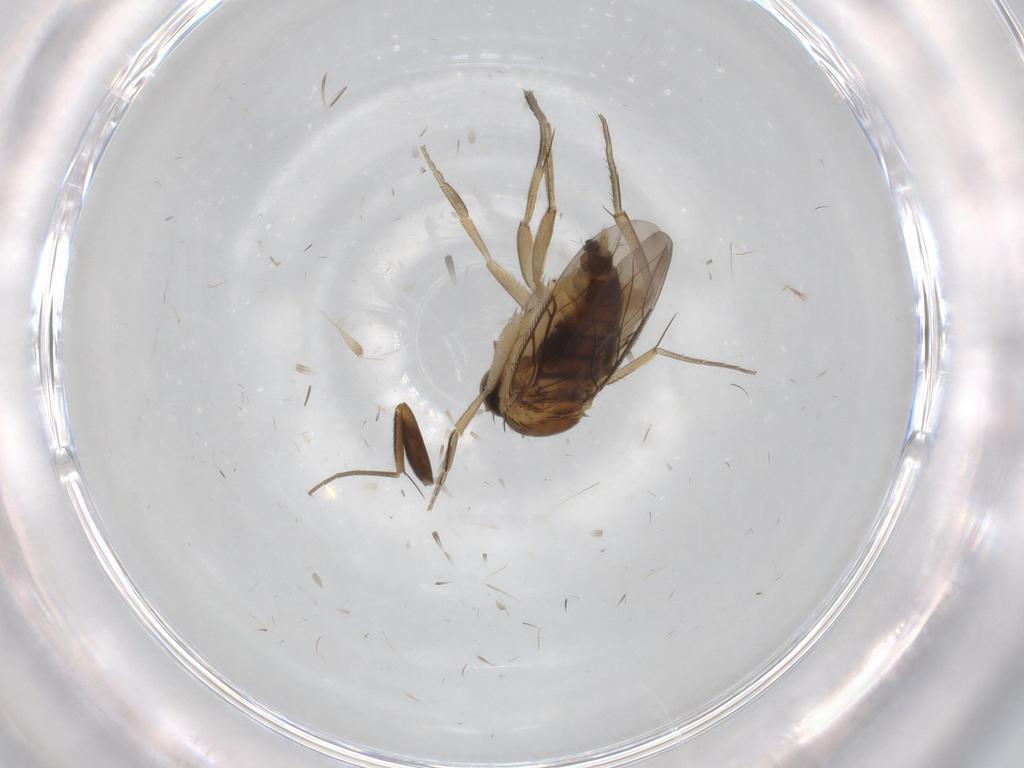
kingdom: Animalia
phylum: Arthropoda
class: Insecta
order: Diptera
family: Phoridae
